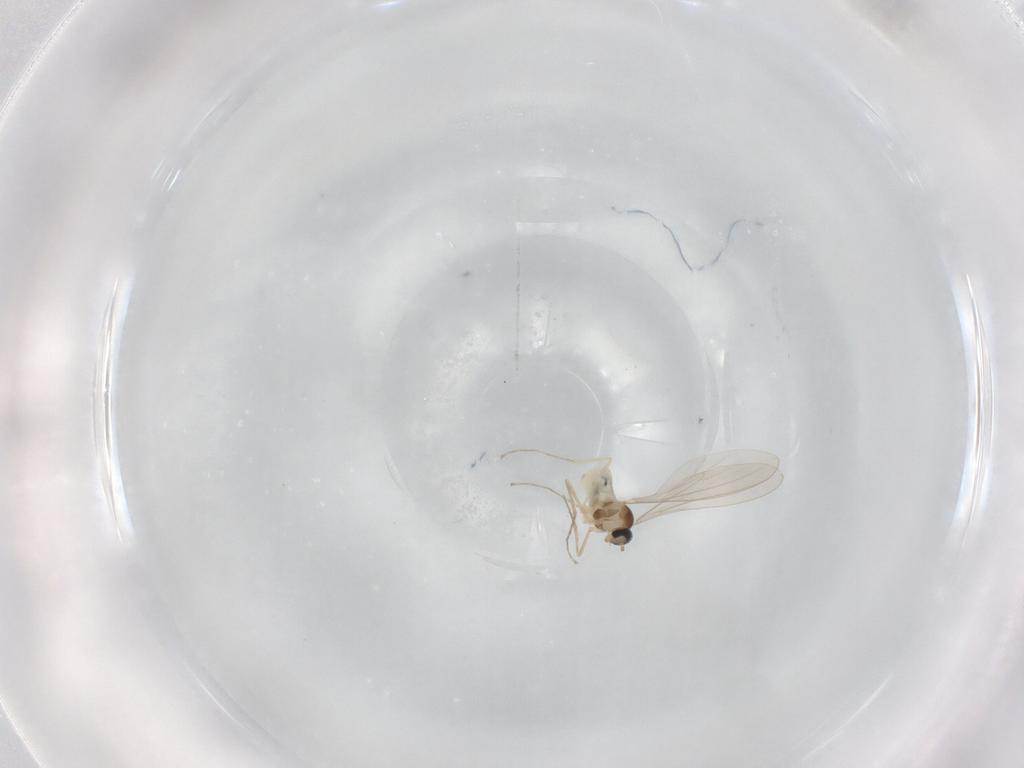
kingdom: Animalia
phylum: Arthropoda
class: Insecta
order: Diptera
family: Cecidomyiidae
